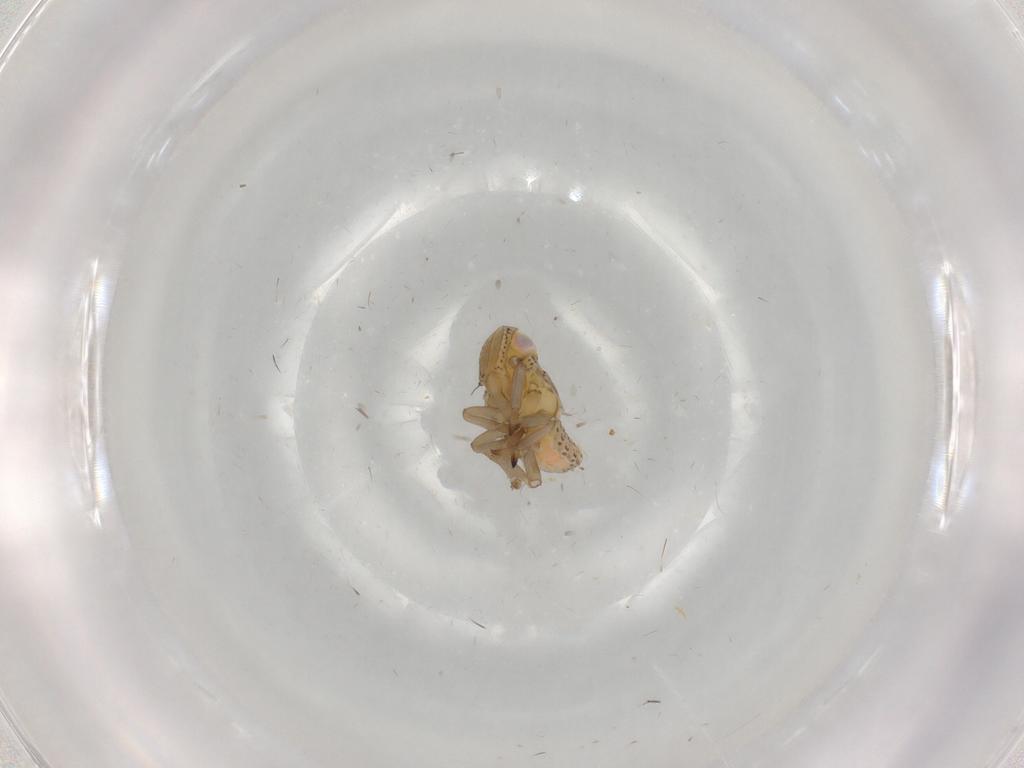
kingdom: Animalia
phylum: Arthropoda
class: Insecta
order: Hemiptera
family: Tropiduchidae
